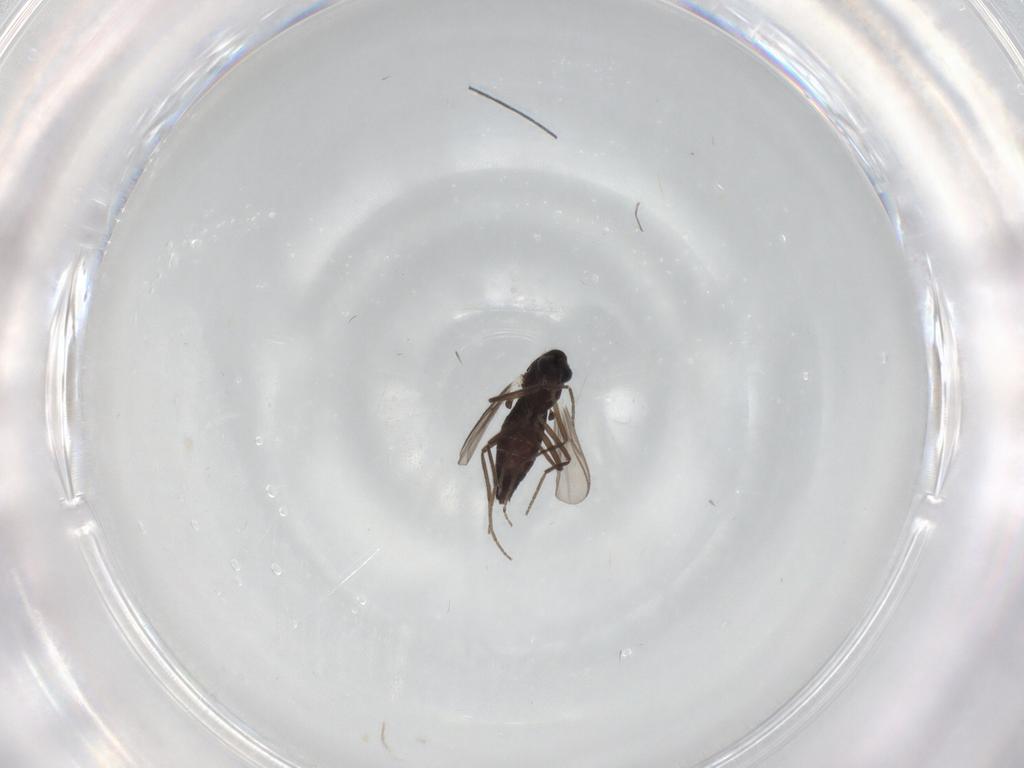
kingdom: Animalia
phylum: Arthropoda
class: Insecta
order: Diptera
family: Chironomidae
